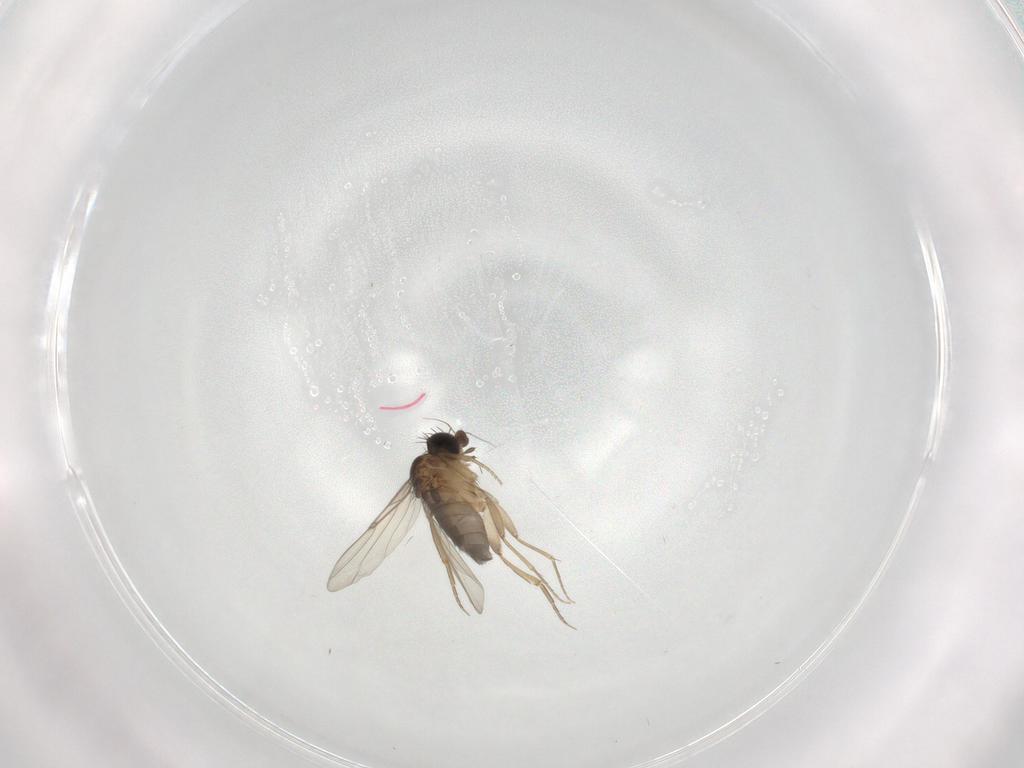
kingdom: Animalia
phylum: Arthropoda
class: Insecta
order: Diptera
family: Phoridae
